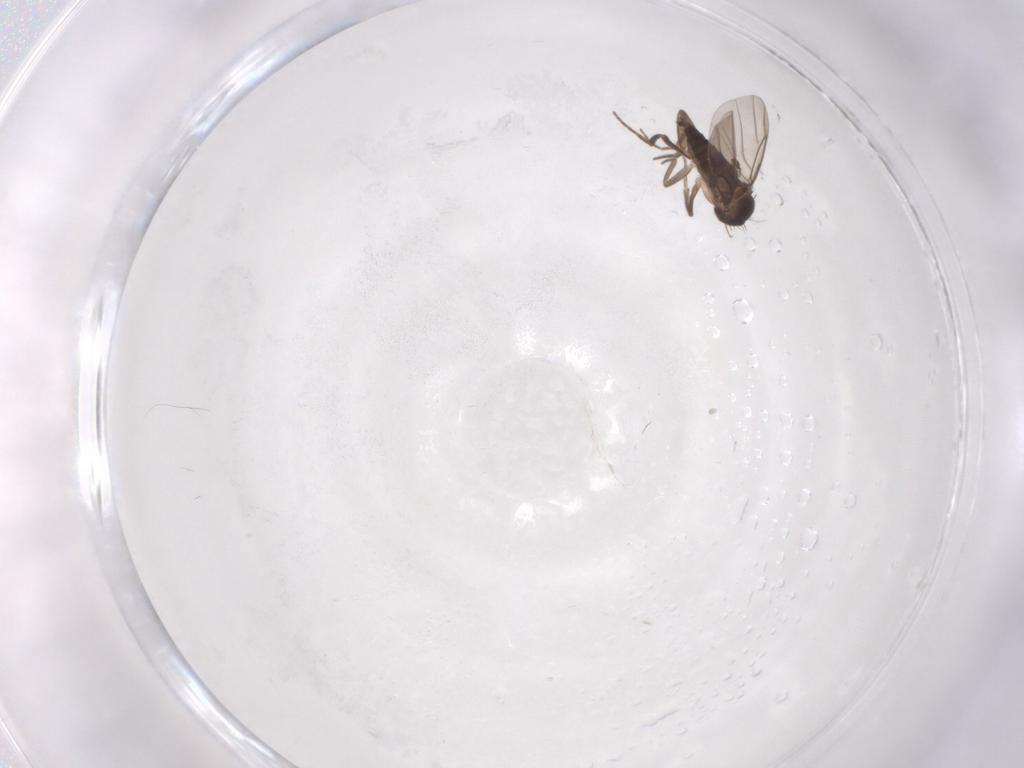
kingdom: Animalia
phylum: Arthropoda
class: Insecta
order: Diptera
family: Phoridae
